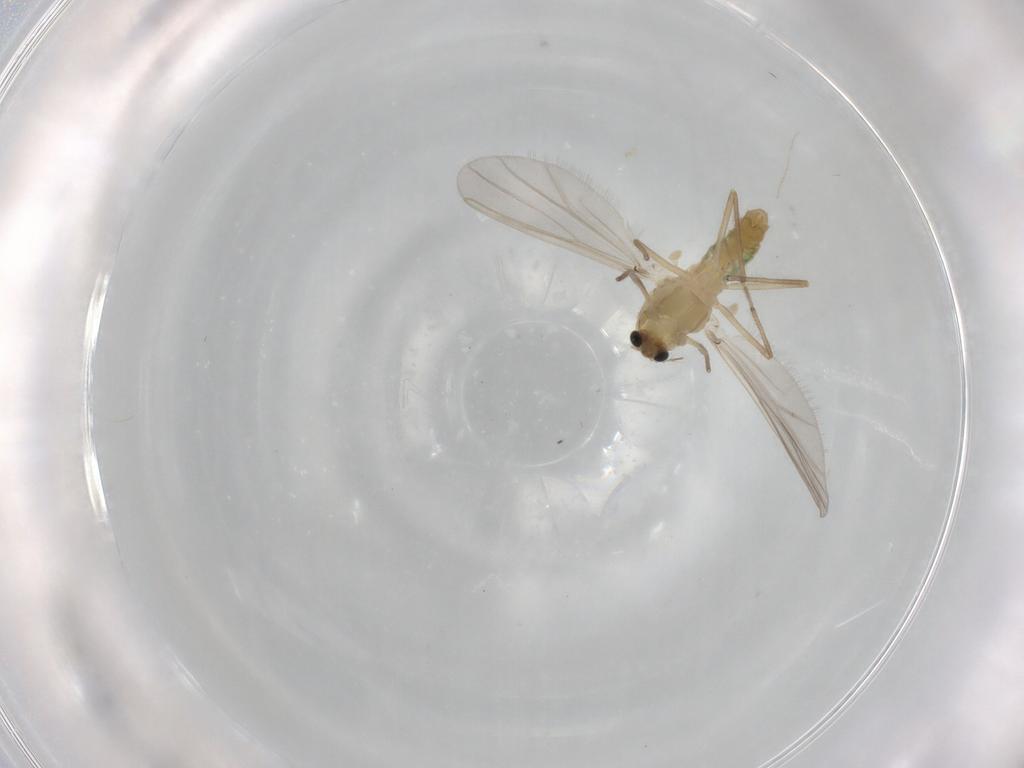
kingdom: Animalia
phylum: Arthropoda
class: Insecta
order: Diptera
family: Chironomidae
